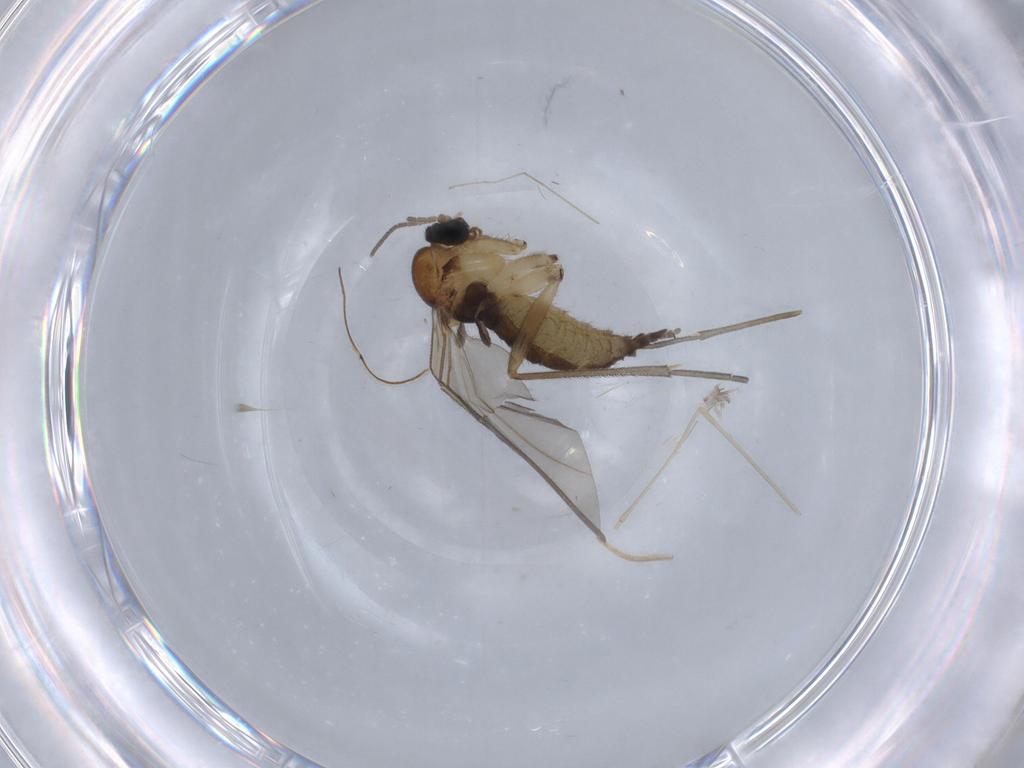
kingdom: Animalia
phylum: Arthropoda
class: Insecta
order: Diptera
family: Sciaridae
